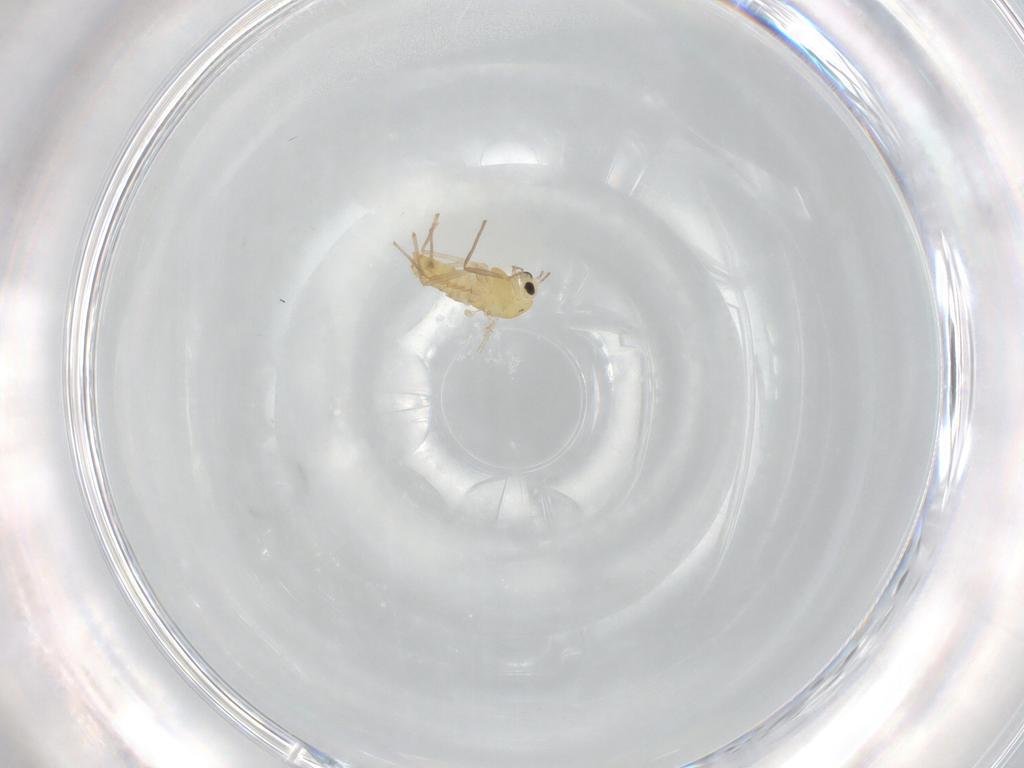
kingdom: Animalia
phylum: Arthropoda
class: Insecta
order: Diptera
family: Chironomidae
